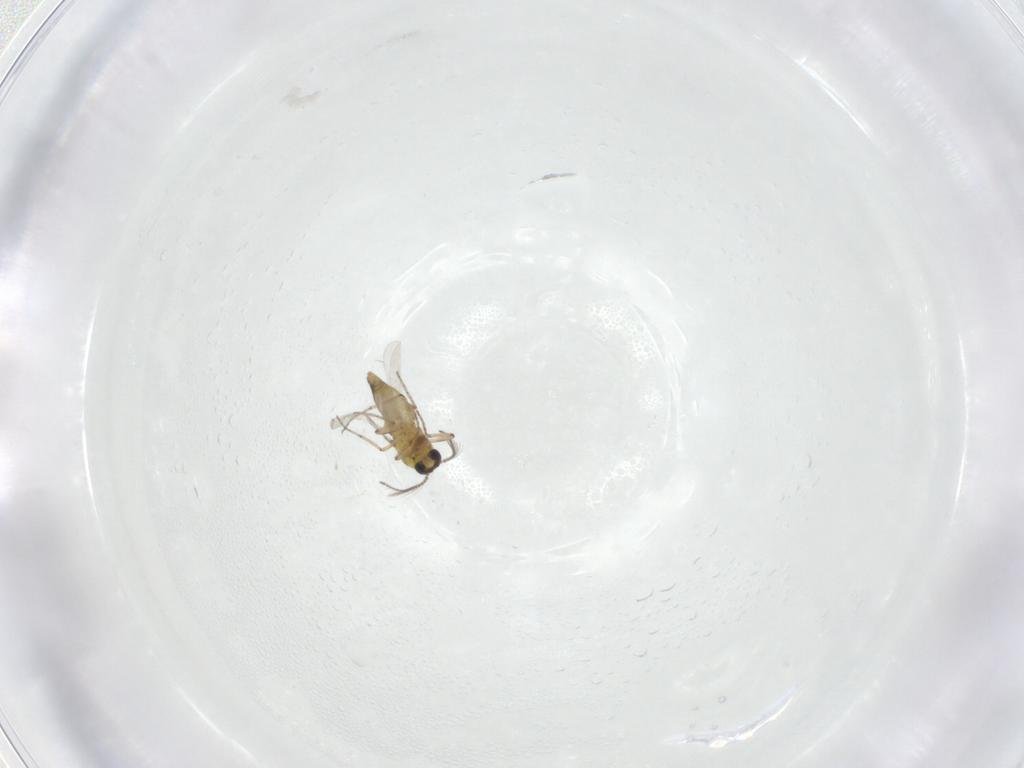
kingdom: Animalia
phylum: Arthropoda
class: Insecta
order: Diptera
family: Ceratopogonidae
